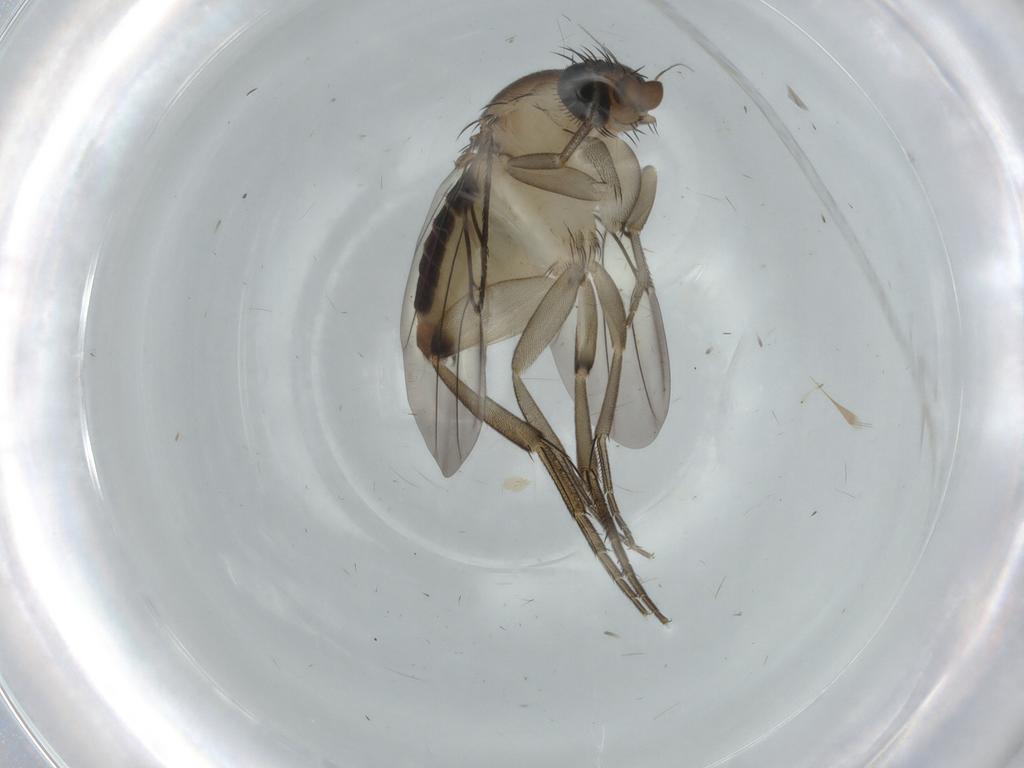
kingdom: Animalia
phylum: Arthropoda
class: Insecta
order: Diptera
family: Phoridae
